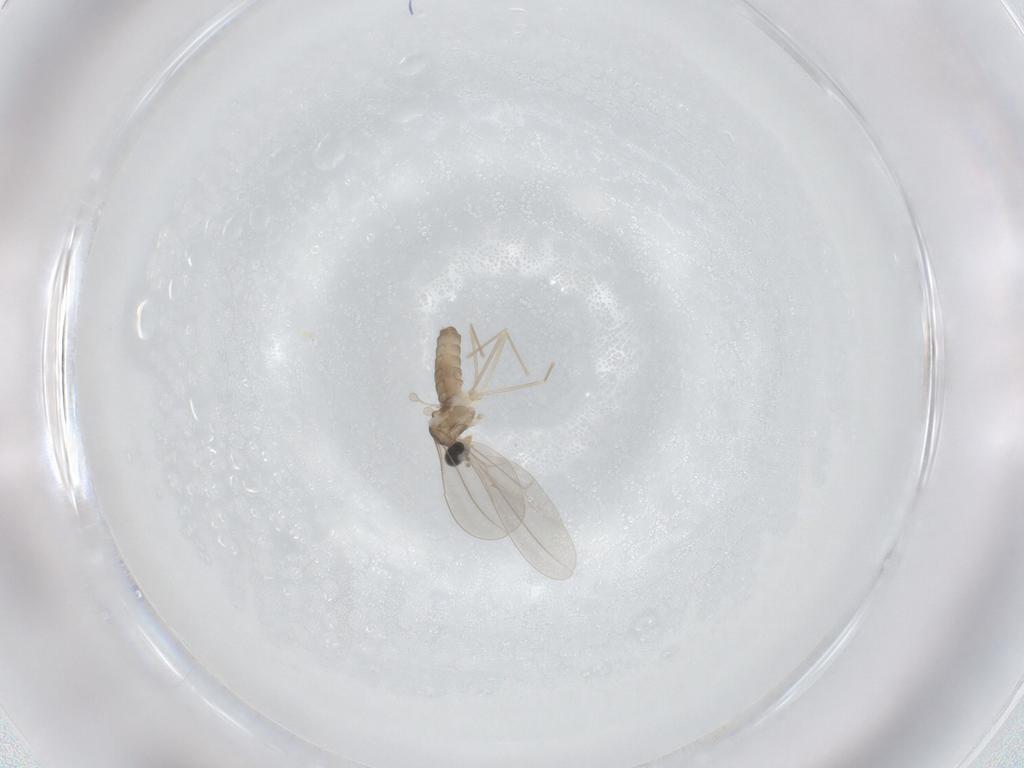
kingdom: Animalia
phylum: Arthropoda
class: Insecta
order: Diptera
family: Cecidomyiidae
